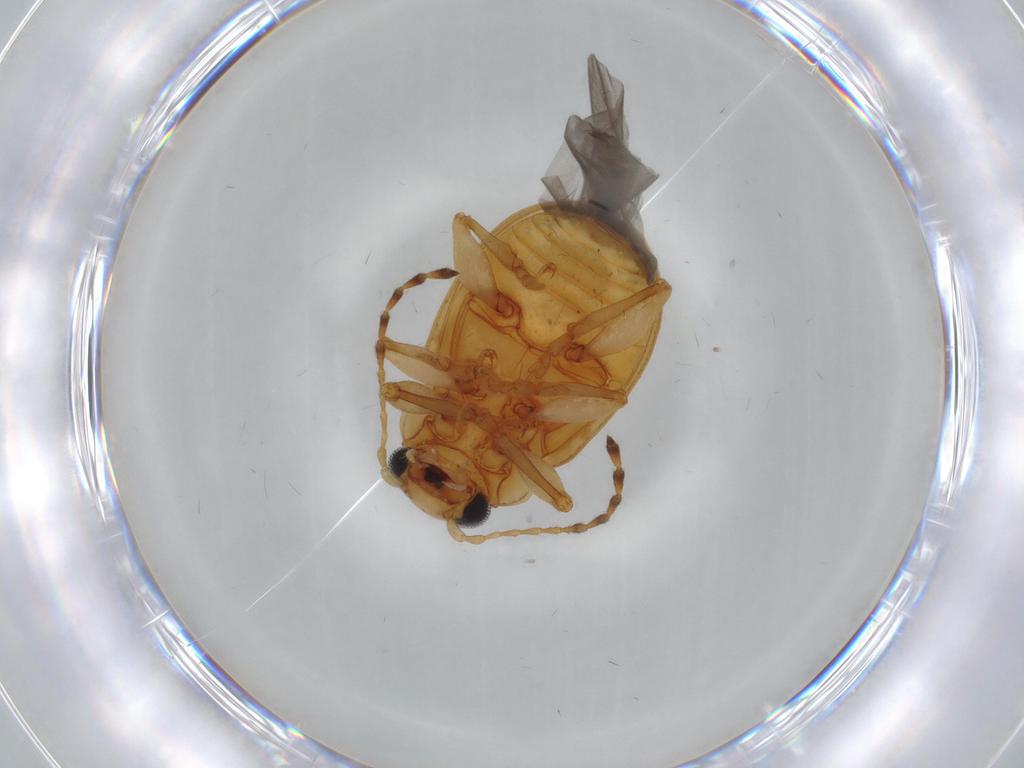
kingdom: Animalia
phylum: Arthropoda
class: Insecta
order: Coleoptera
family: Chrysomelidae
